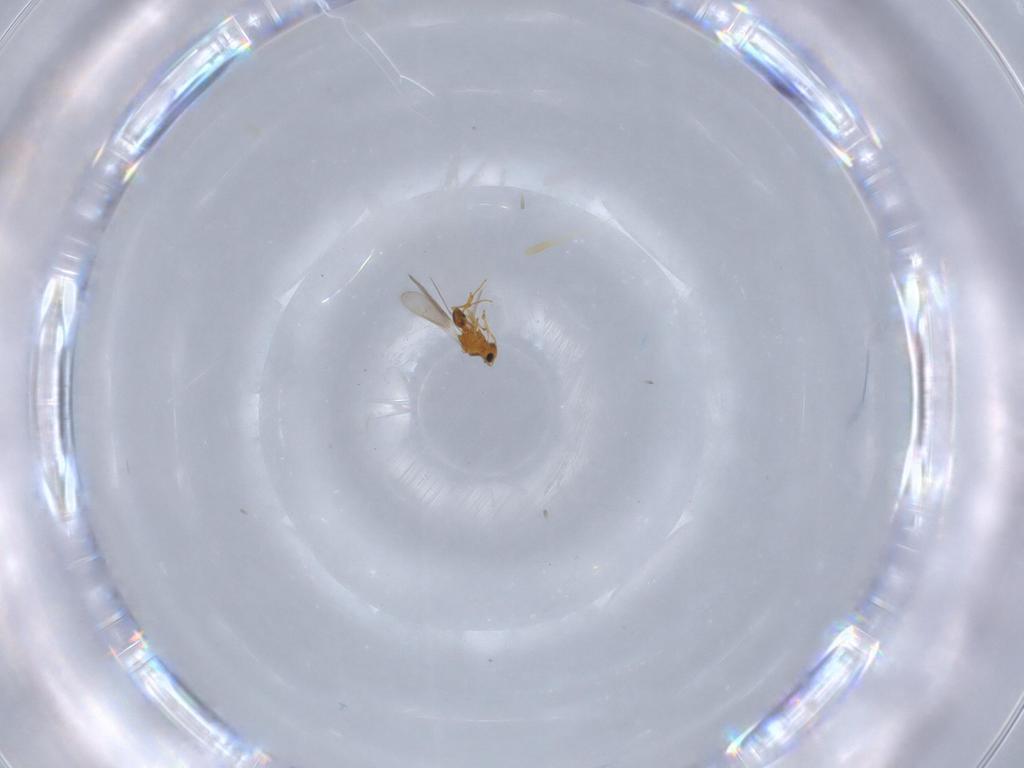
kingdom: Animalia
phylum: Arthropoda
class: Insecta
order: Hymenoptera
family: Platygastridae
